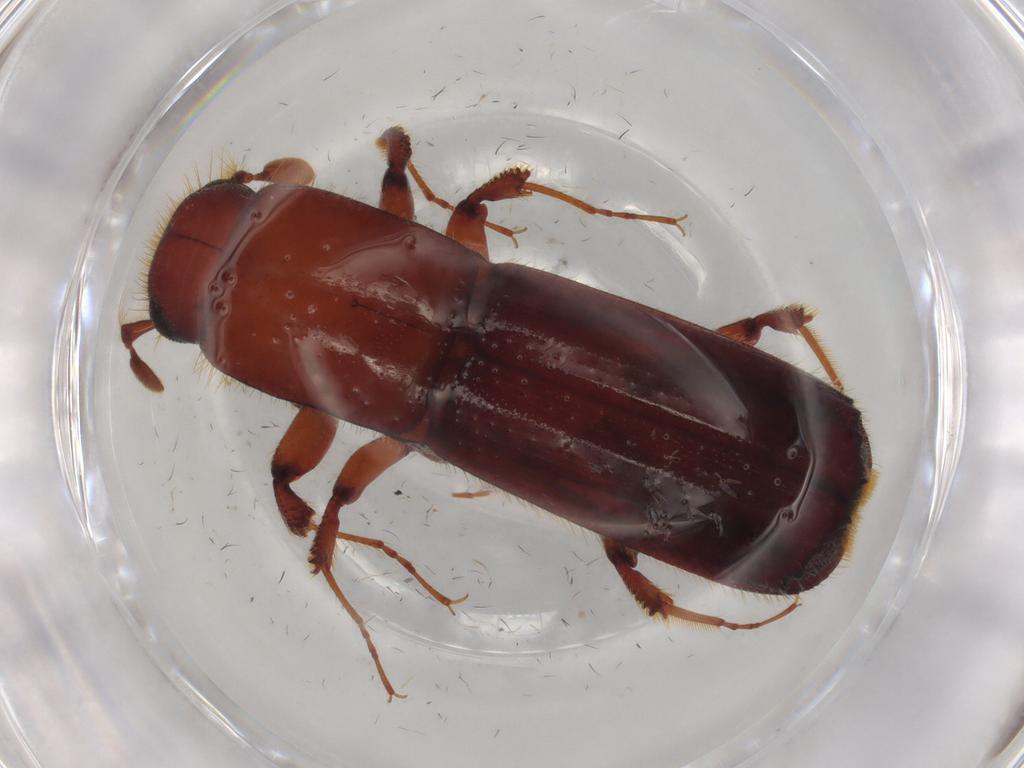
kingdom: Animalia
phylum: Arthropoda
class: Insecta
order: Coleoptera
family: Curculionidae
